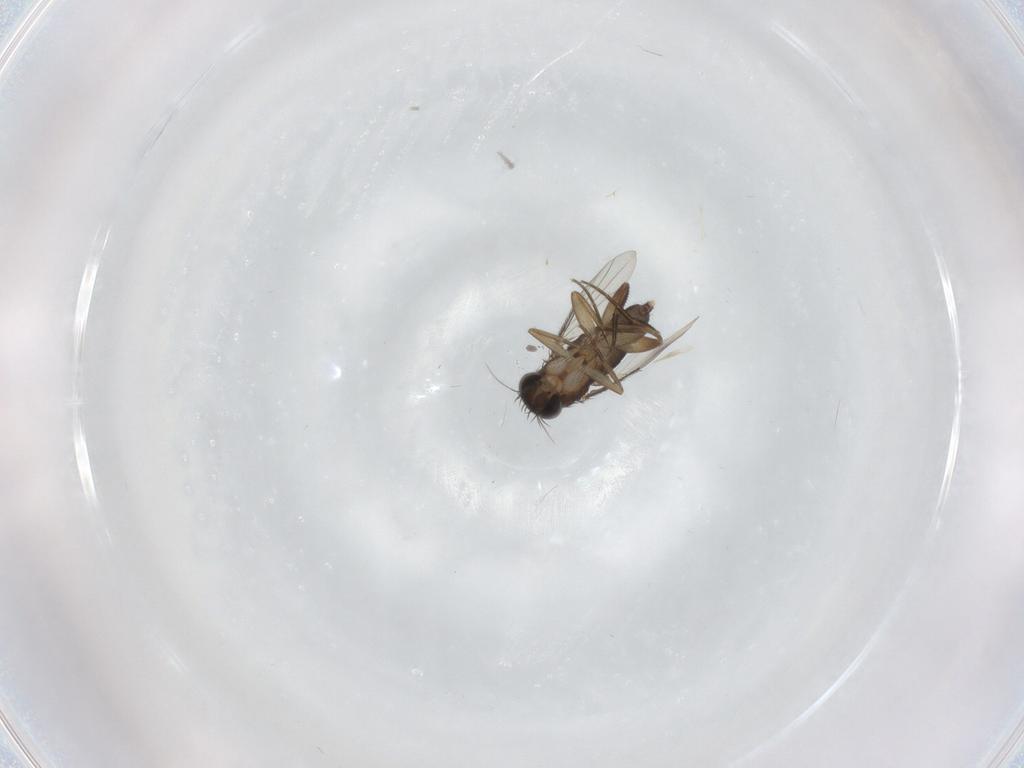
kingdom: Animalia
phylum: Arthropoda
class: Insecta
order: Diptera
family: Phoridae
